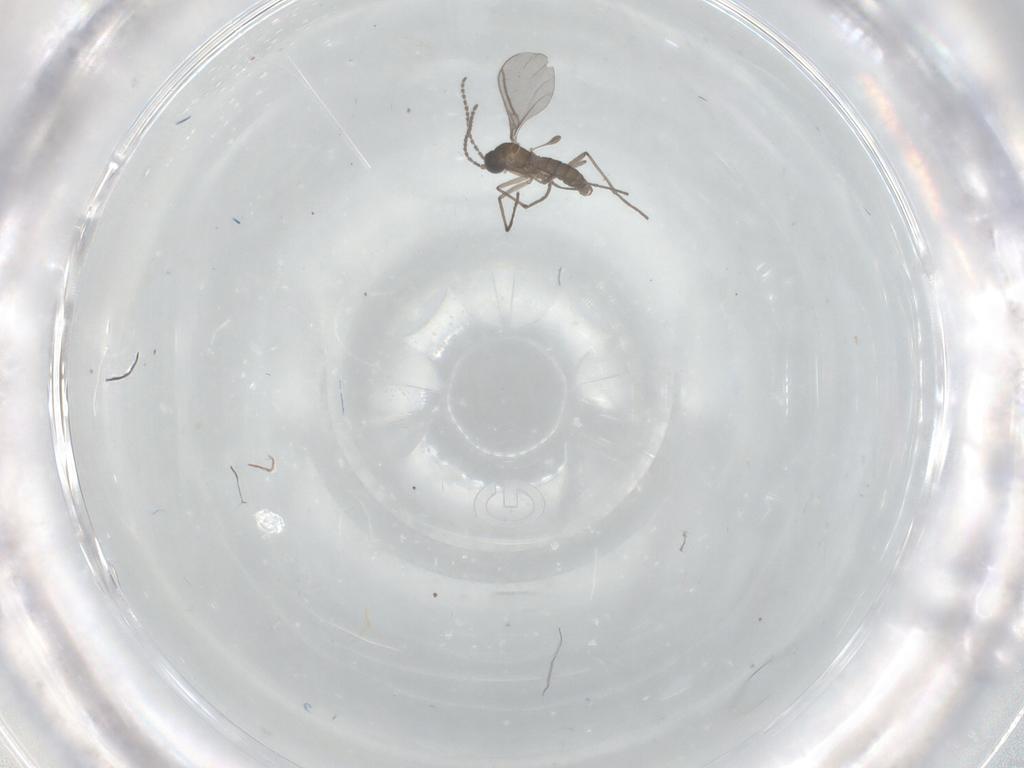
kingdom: Animalia
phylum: Arthropoda
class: Insecta
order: Diptera
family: Sciaridae
